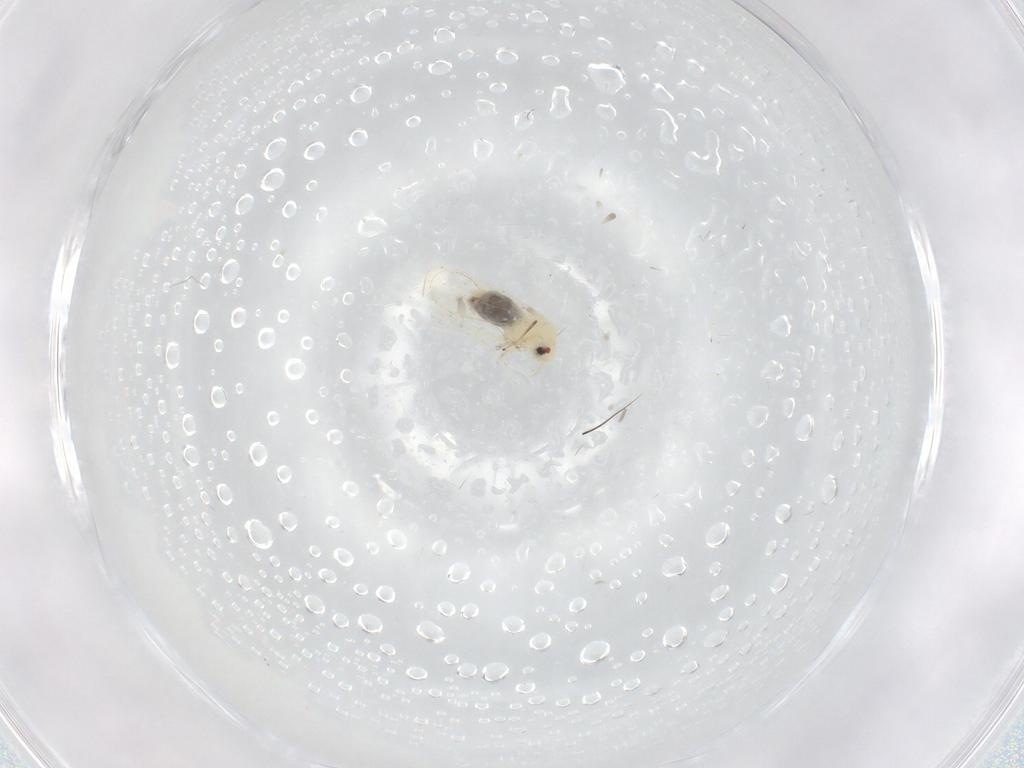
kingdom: Animalia
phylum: Arthropoda
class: Insecta
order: Hemiptera
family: Aleyrodidae
